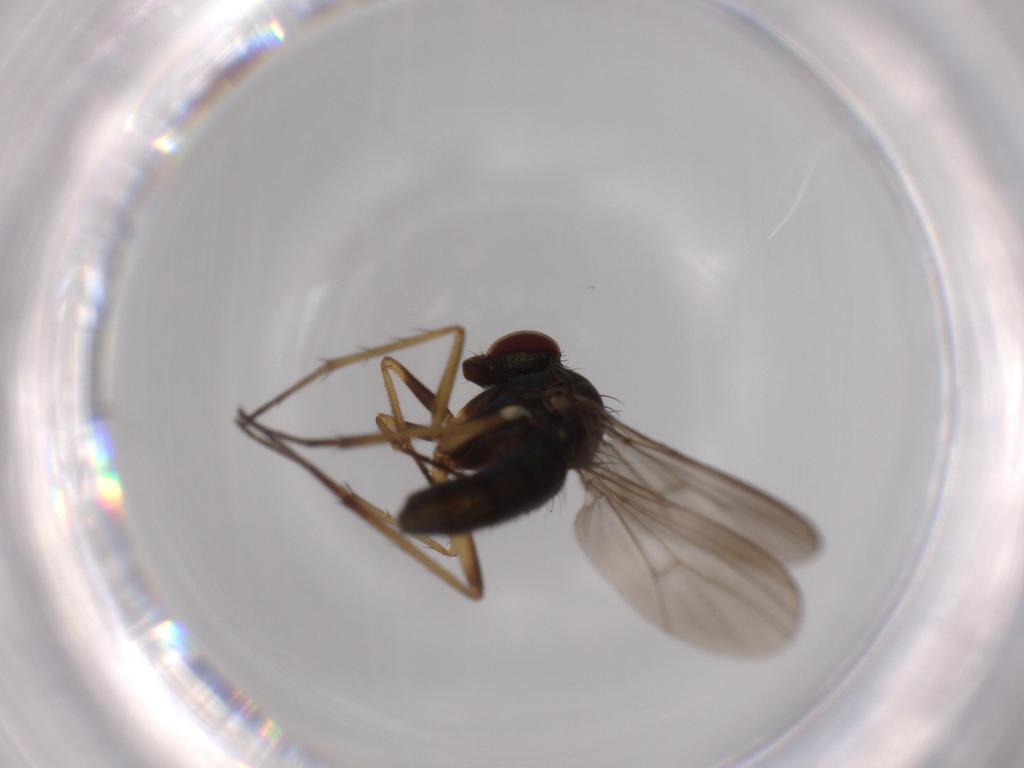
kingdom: Animalia
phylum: Arthropoda
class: Insecta
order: Diptera
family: Dolichopodidae
